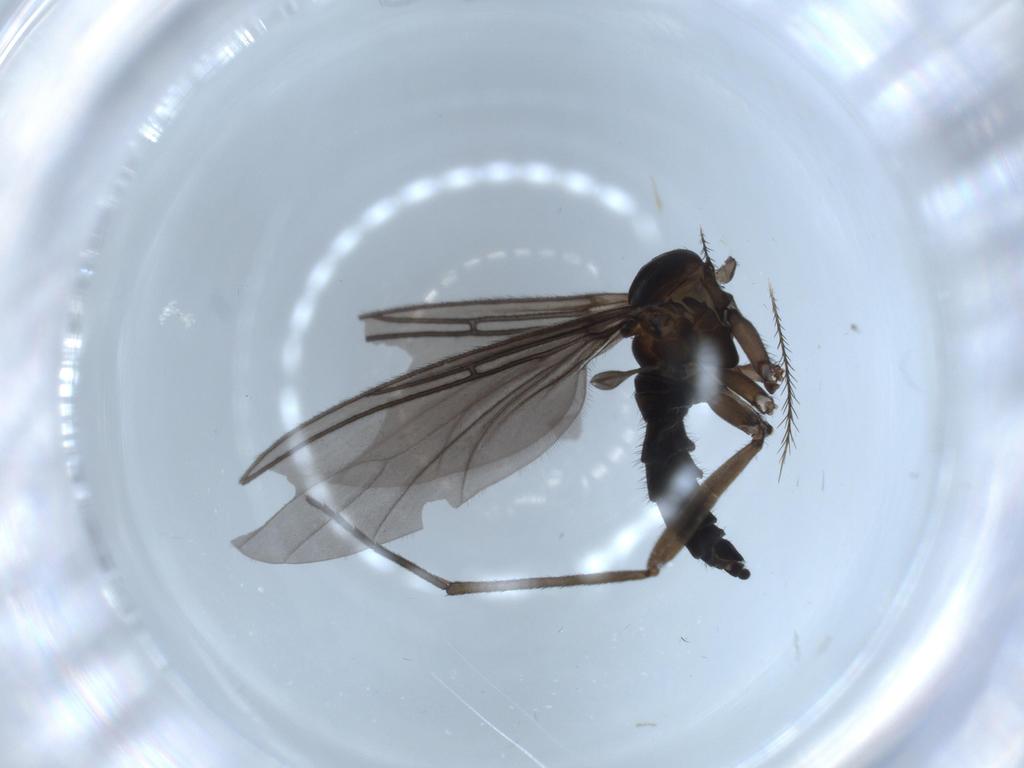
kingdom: Animalia
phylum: Arthropoda
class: Insecta
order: Diptera
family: Sciaridae
